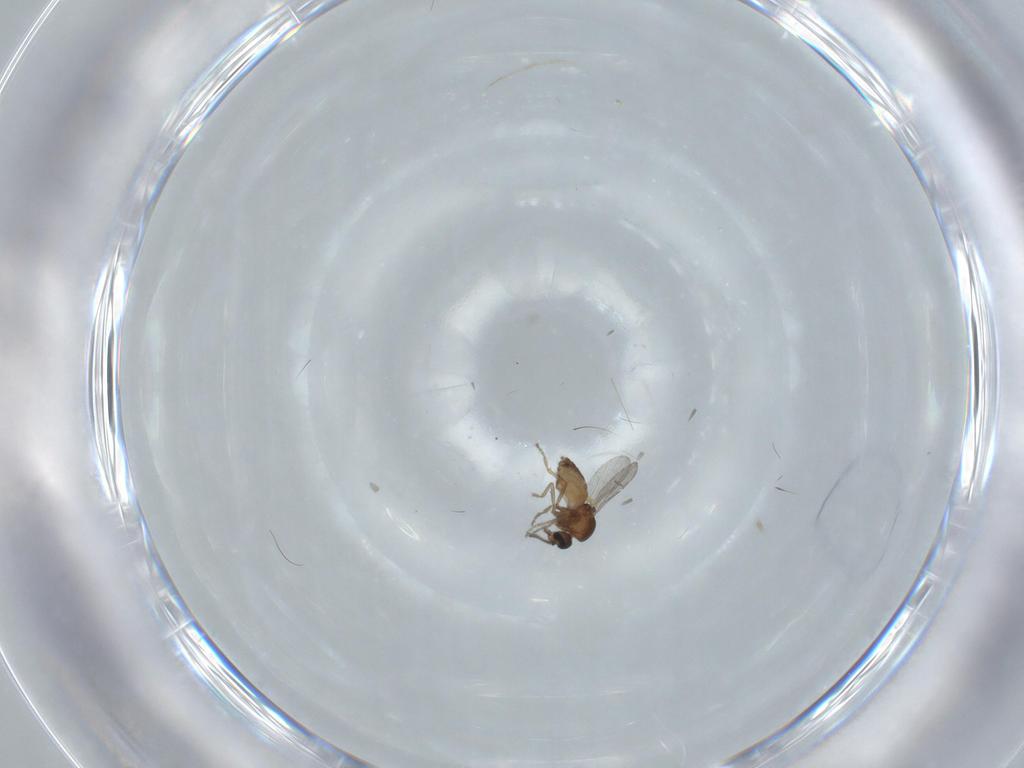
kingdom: Animalia
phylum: Arthropoda
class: Insecta
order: Diptera
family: Ceratopogonidae
